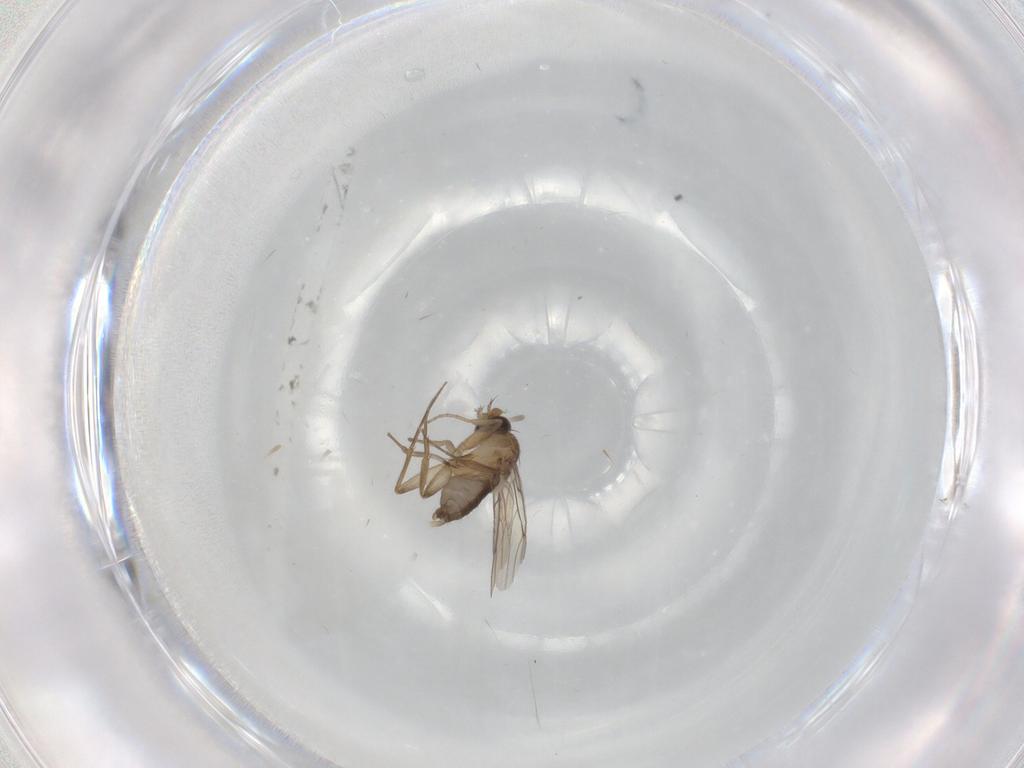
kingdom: Animalia
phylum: Arthropoda
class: Insecta
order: Diptera
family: Phoridae
